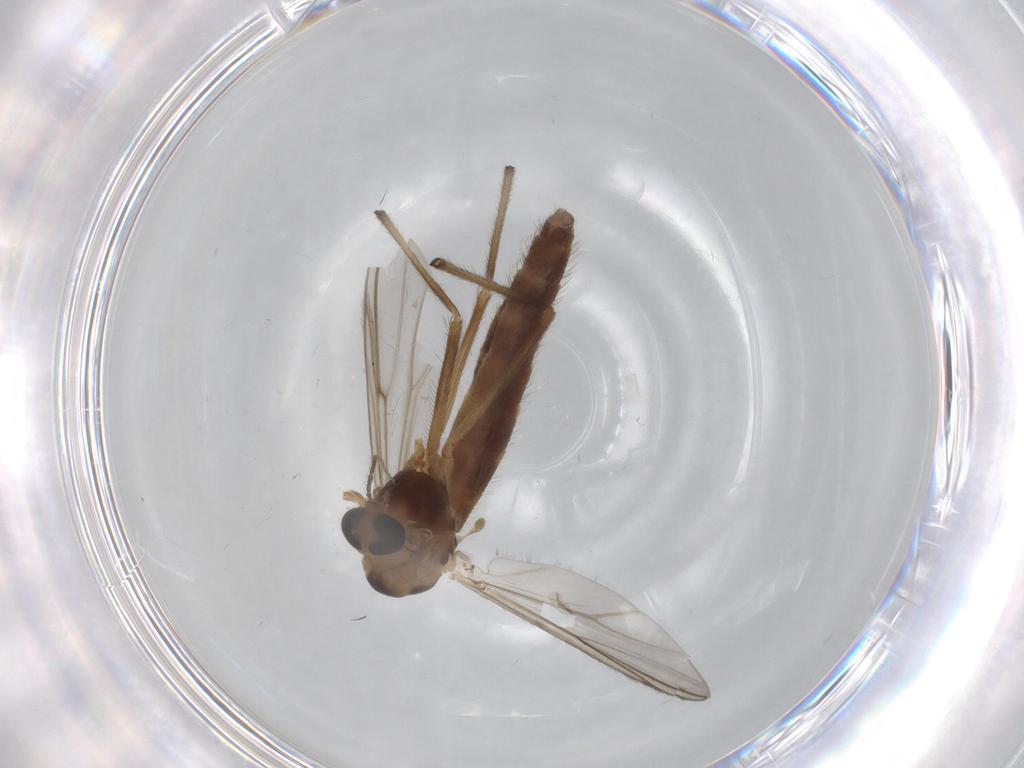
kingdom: Animalia
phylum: Arthropoda
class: Insecta
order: Diptera
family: Chironomidae
